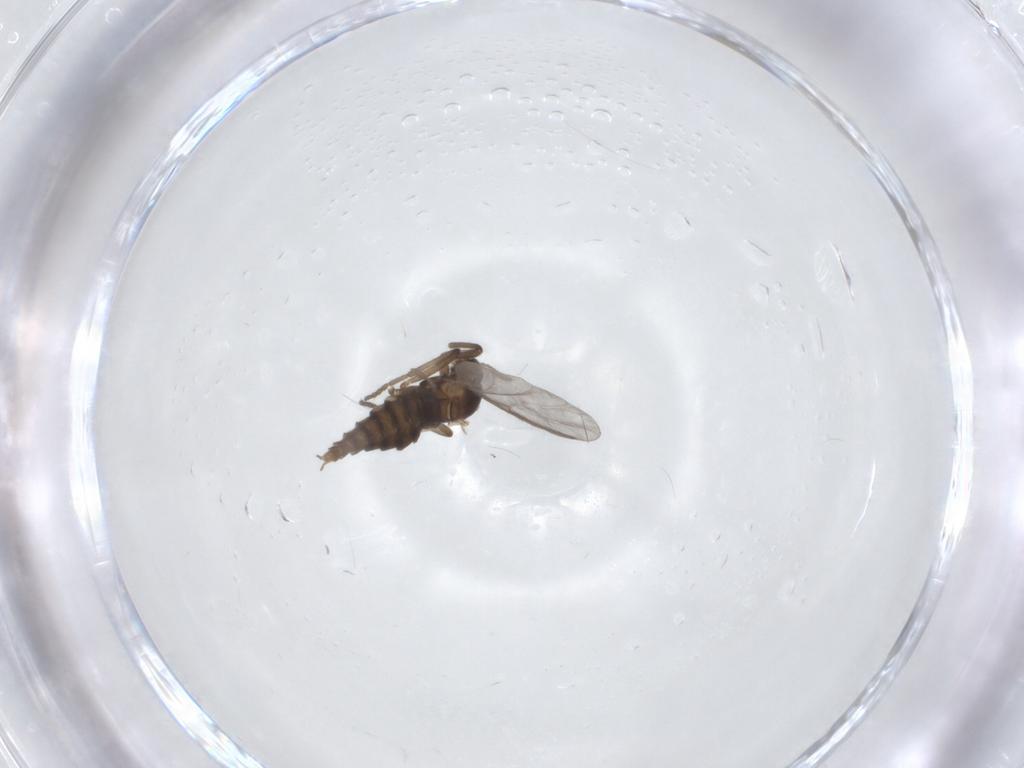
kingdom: Animalia
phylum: Arthropoda
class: Insecta
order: Diptera
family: Cecidomyiidae
